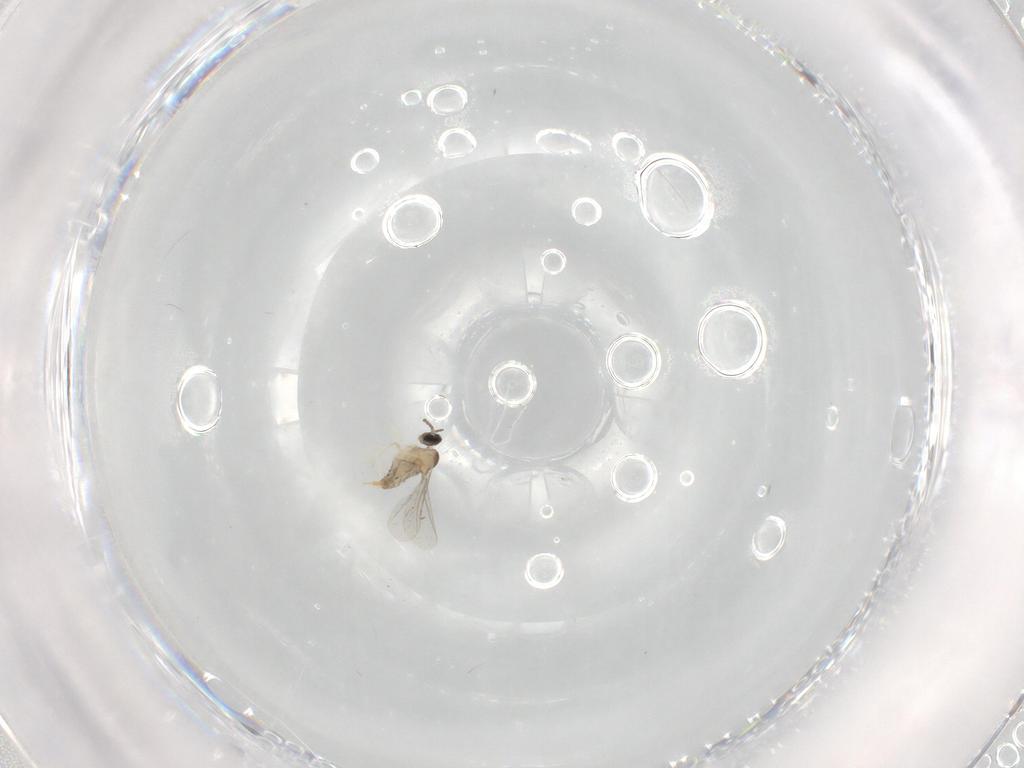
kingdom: Animalia
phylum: Arthropoda
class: Insecta
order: Diptera
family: Cecidomyiidae
